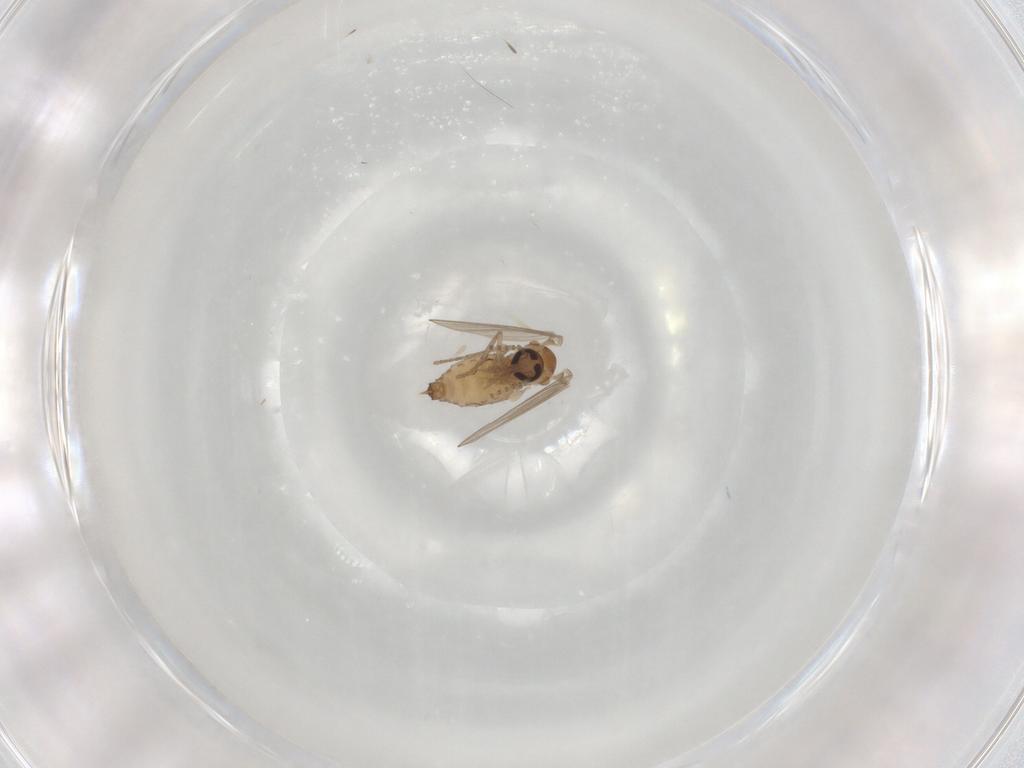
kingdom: Animalia
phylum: Arthropoda
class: Insecta
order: Diptera
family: Psychodidae
